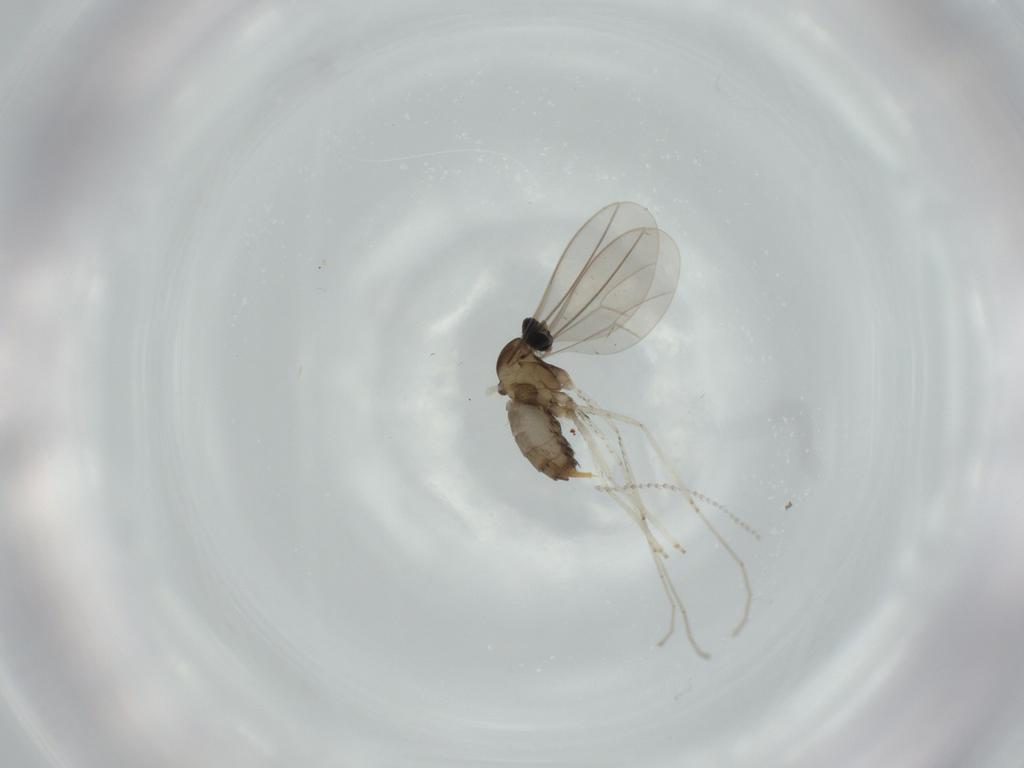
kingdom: Animalia
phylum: Arthropoda
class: Insecta
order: Diptera
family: Cecidomyiidae
